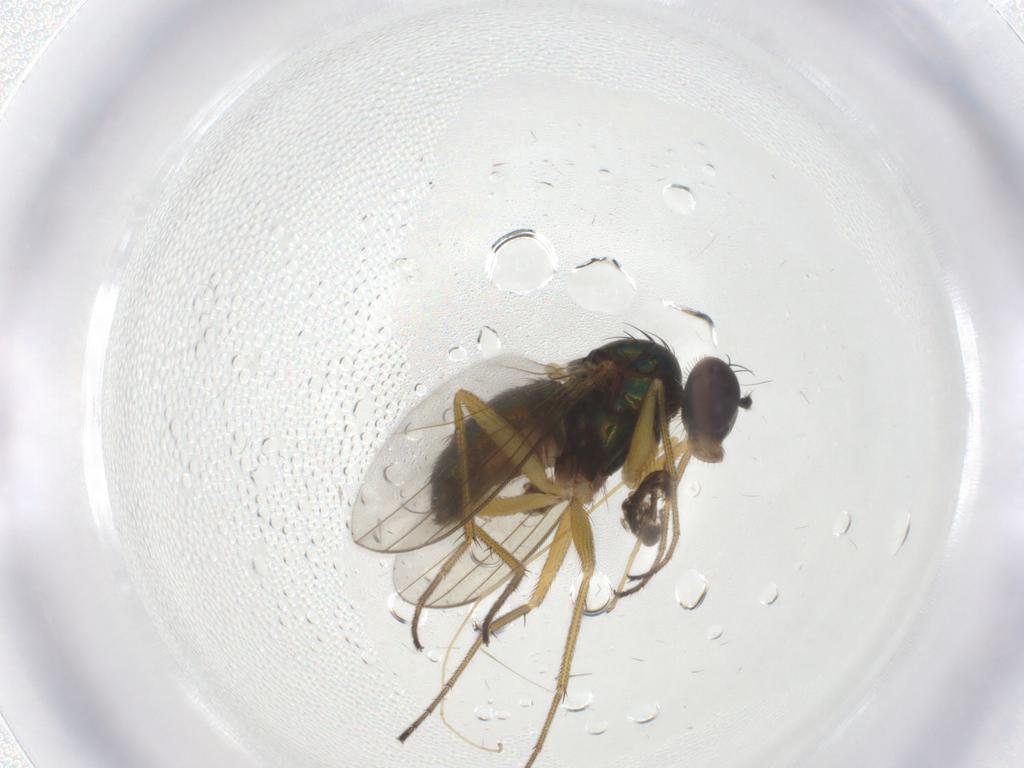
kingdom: Animalia
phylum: Arthropoda
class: Insecta
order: Diptera
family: Dolichopodidae
